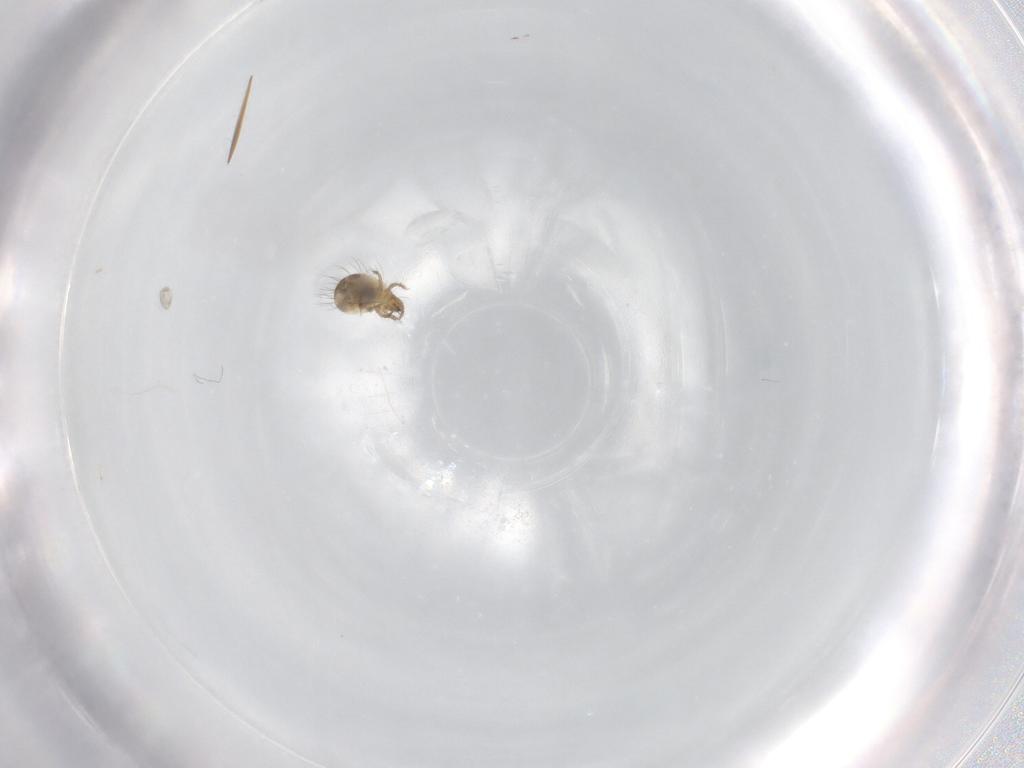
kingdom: Animalia
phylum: Arthropoda
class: Arachnida
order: Sarcoptiformes
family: Humerobatidae
